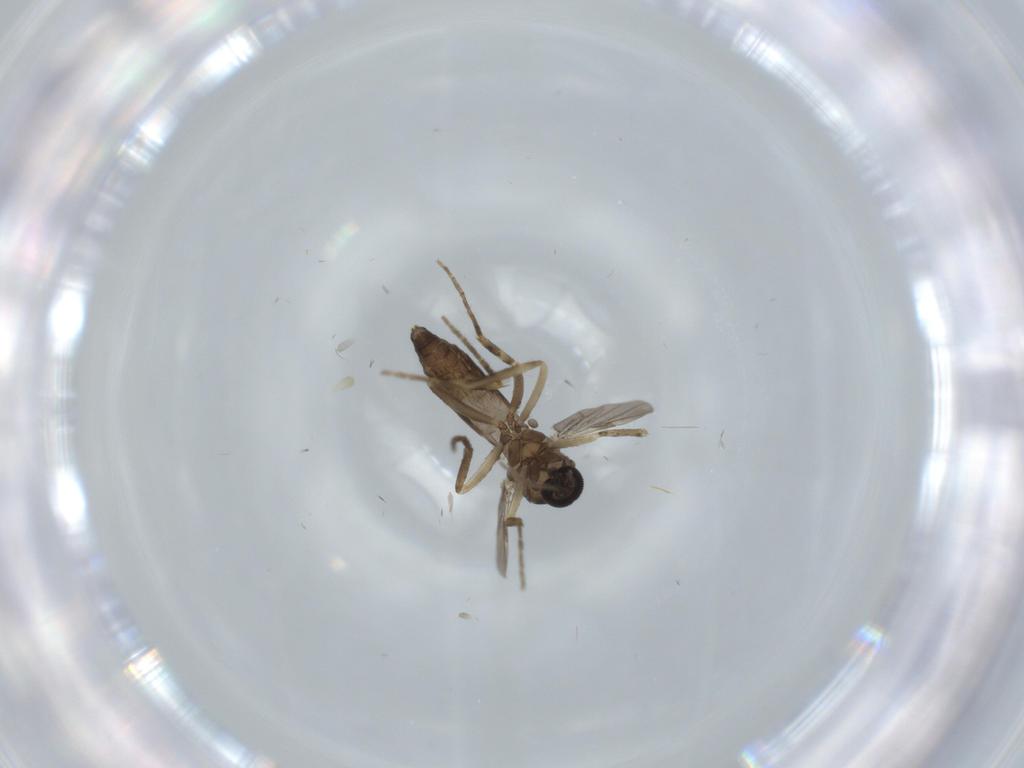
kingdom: Animalia
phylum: Arthropoda
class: Insecta
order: Diptera
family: Ceratopogonidae
